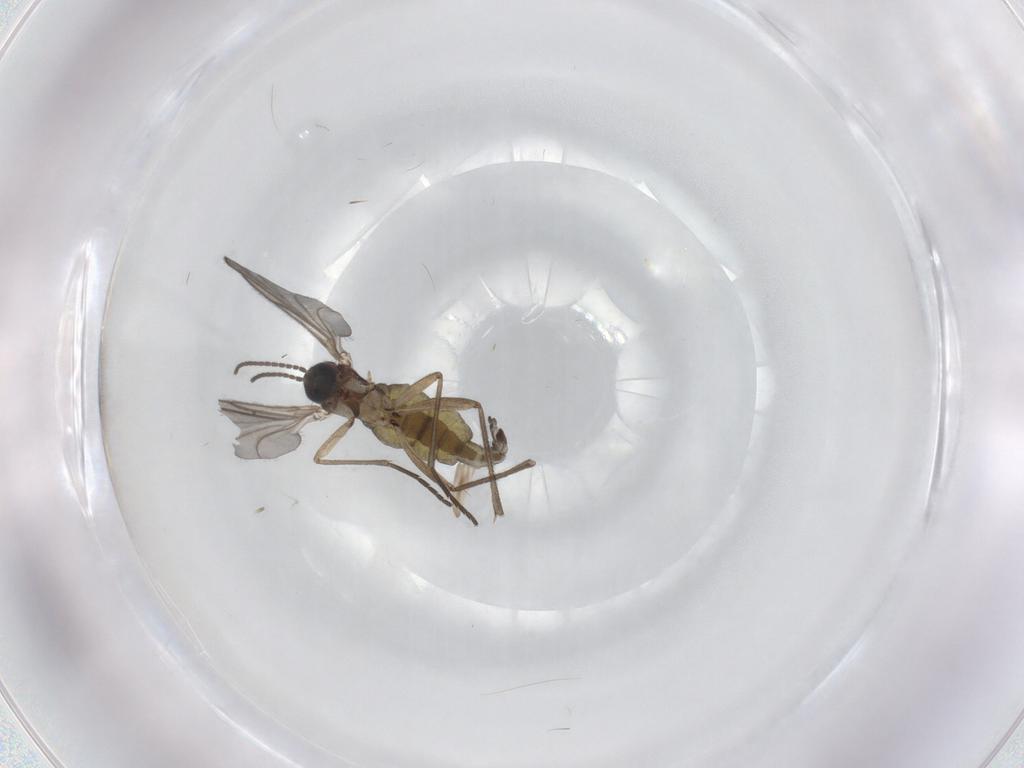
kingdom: Animalia
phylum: Arthropoda
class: Insecta
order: Diptera
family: Sciaridae
